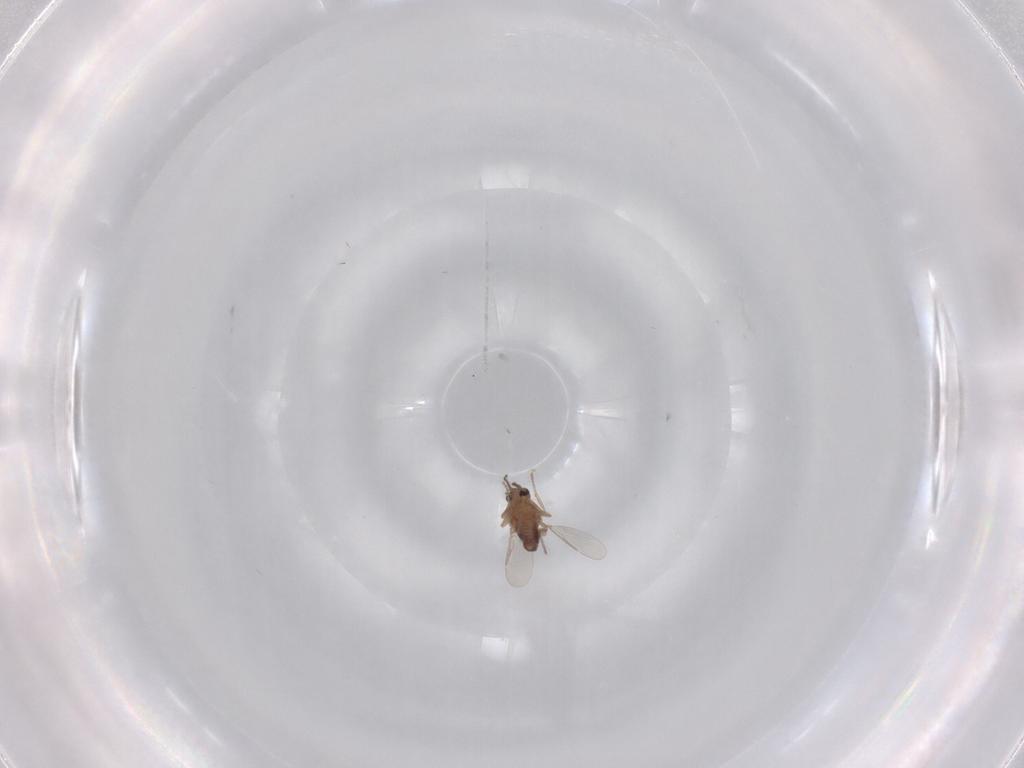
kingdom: Animalia
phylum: Arthropoda
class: Insecta
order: Diptera
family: Ceratopogonidae
